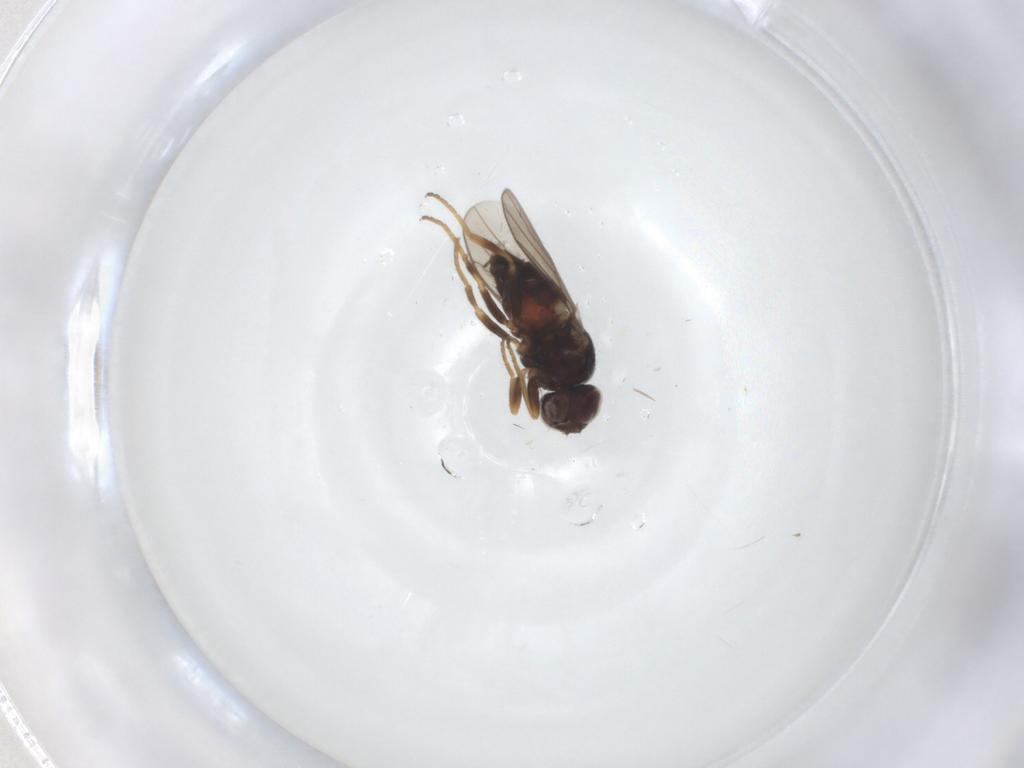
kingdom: Animalia
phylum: Arthropoda
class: Insecta
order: Diptera
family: Chloropidae
